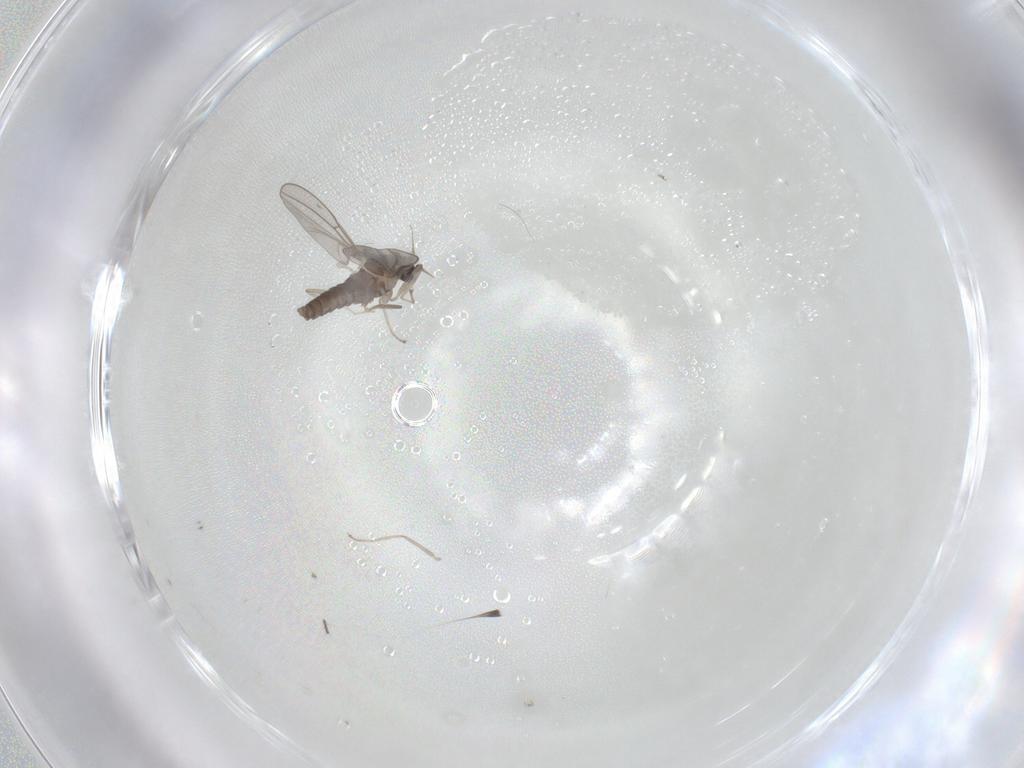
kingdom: Animalia
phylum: Arthropoda
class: Insecta
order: Diptera
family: Cecidomyiidae
